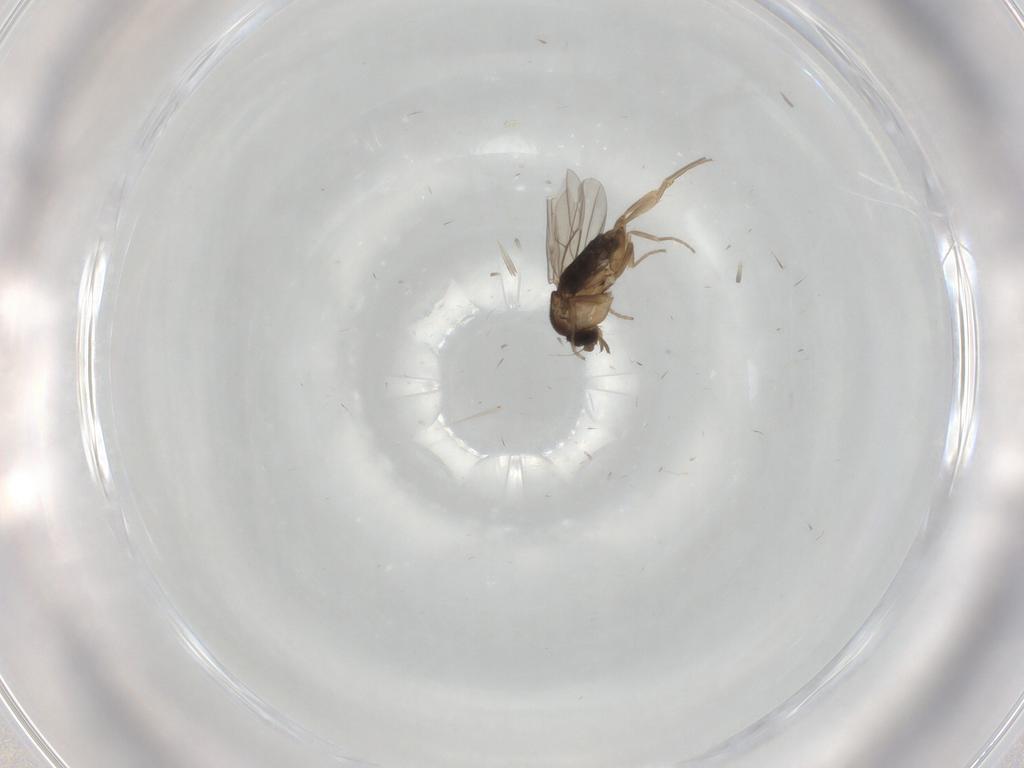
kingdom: Animalia
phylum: Arthropoda
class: Insecta
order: Diptera
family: Phoridae
